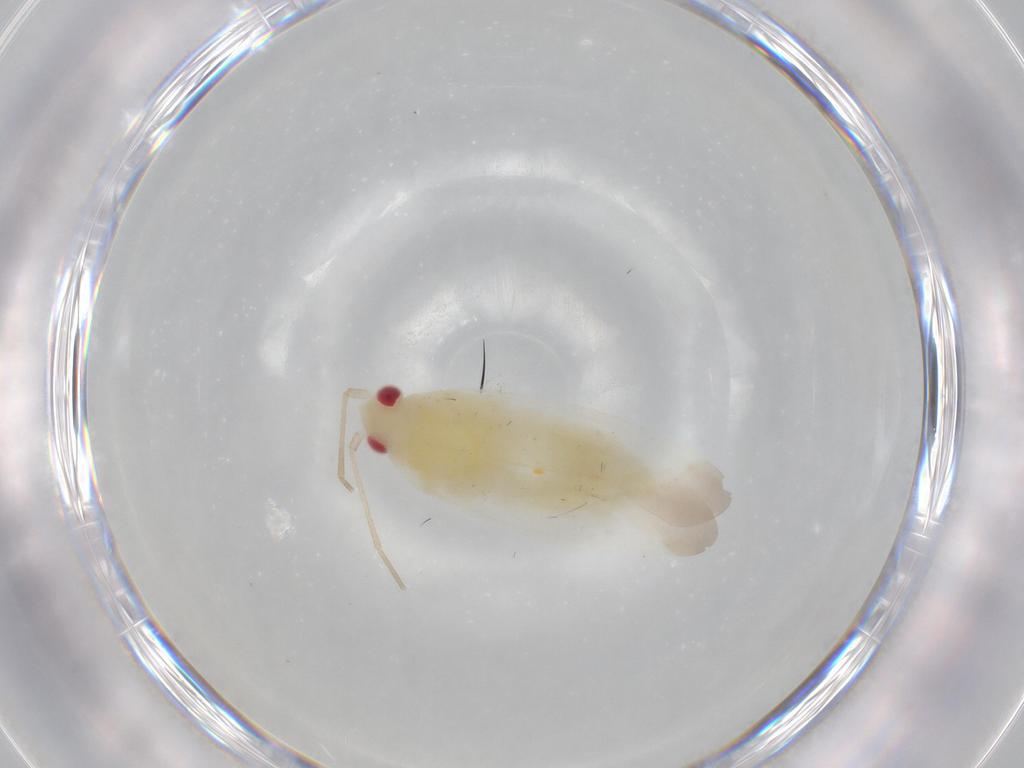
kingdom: Animalia
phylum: Arthropoda
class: Insecta
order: Hemiptera
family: Miridae
